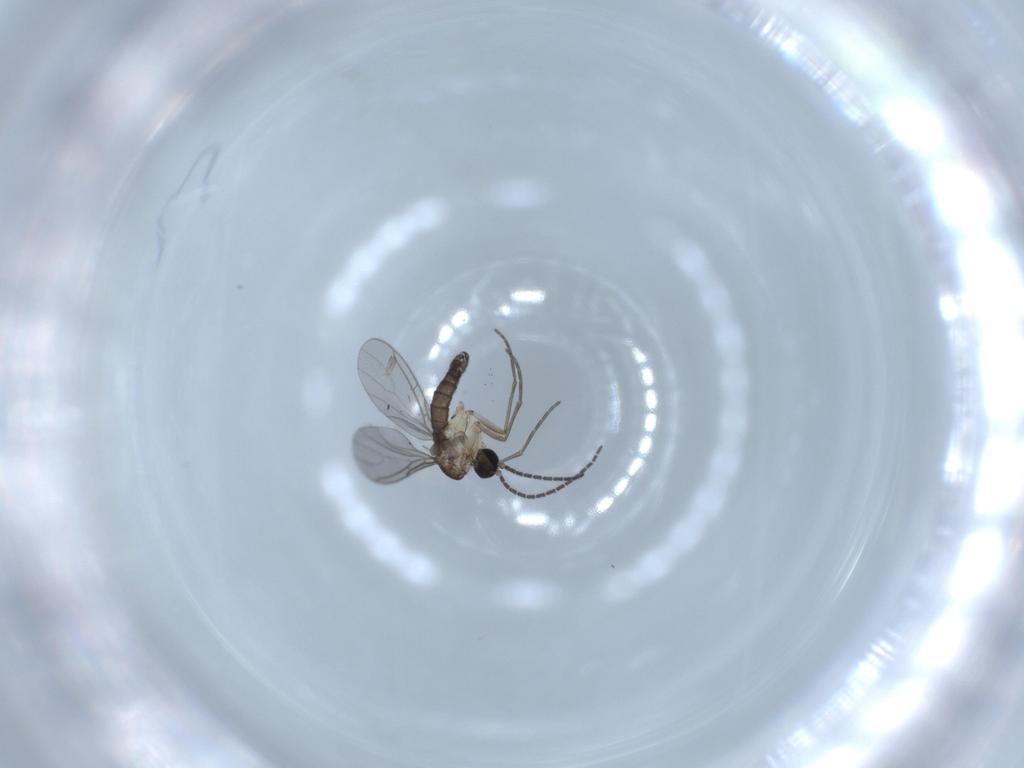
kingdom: Animalia
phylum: Arthropoda
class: Insecta
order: Diptera
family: Sciaridae
